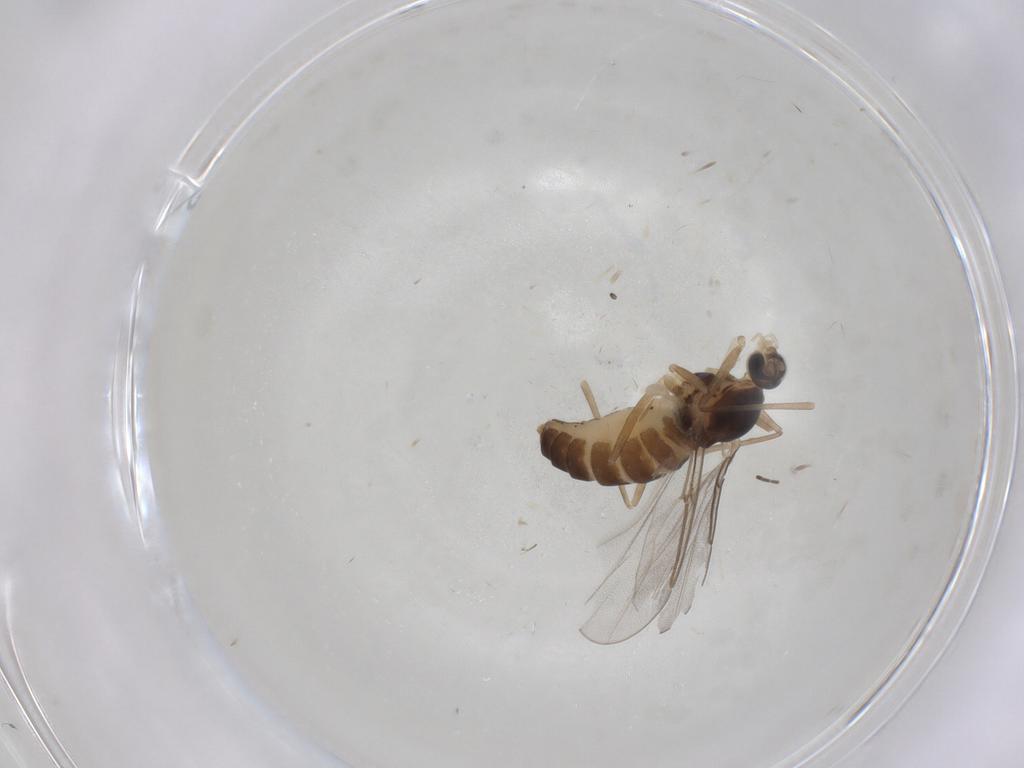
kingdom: Animalia
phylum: Arthropoda
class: Insecta
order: Diptera
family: Cecidomyiidae
